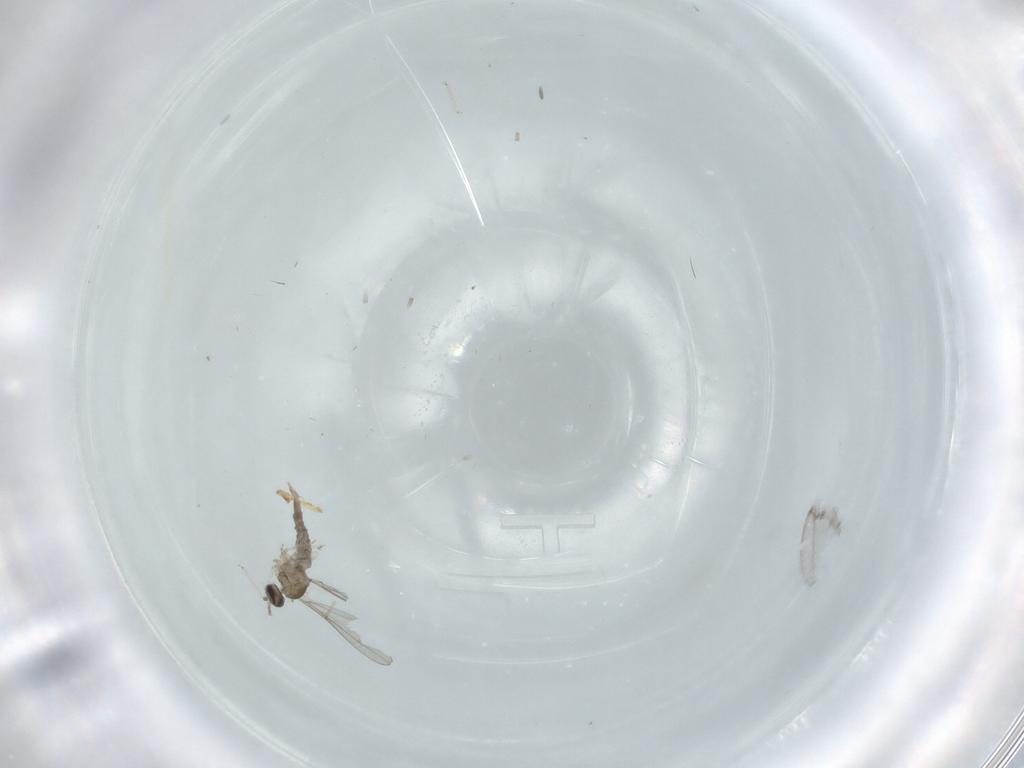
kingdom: Animalia
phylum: Arthropoda
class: Insecta
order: Diptera
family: Cecidomyiidae
